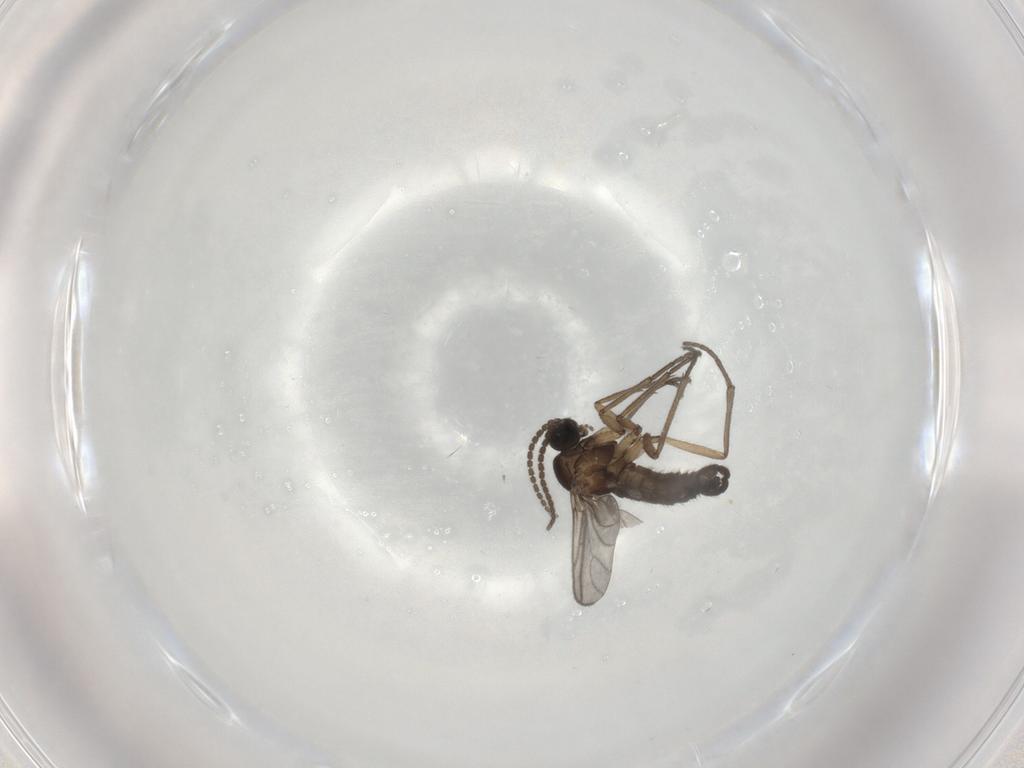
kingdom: Animalia
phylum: Arthropoda
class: Insecta
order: Diptera
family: Sciaridae
